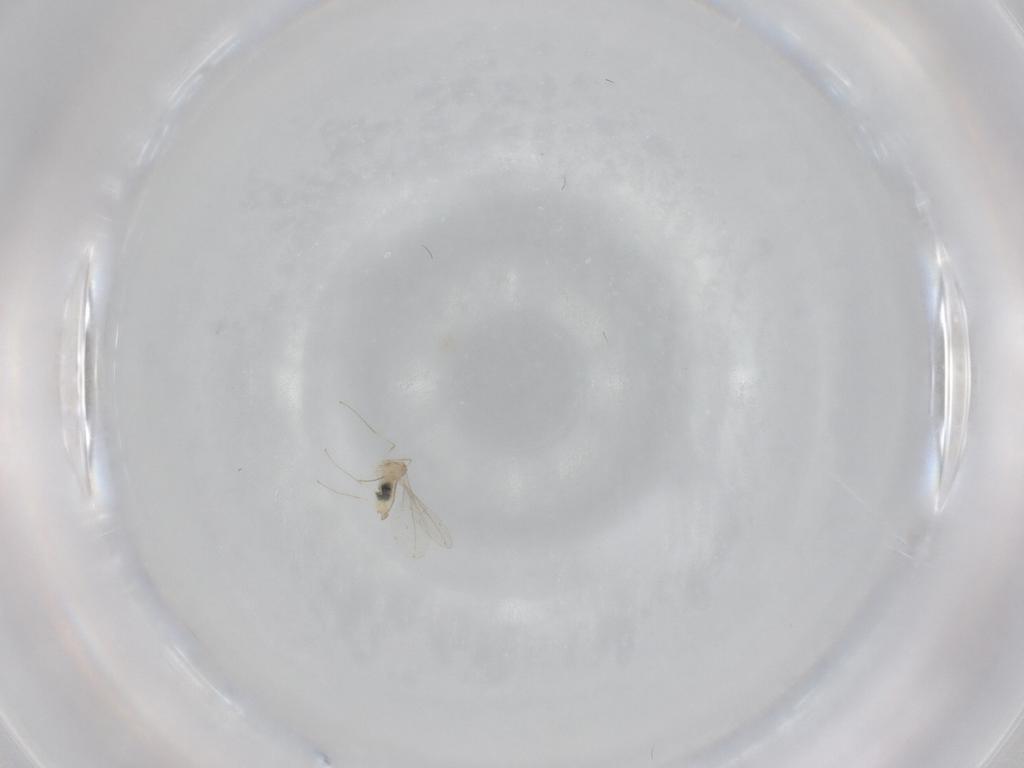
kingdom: Animalia
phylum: Arthropoda
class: Insecta
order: Diptera
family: Phoridae
